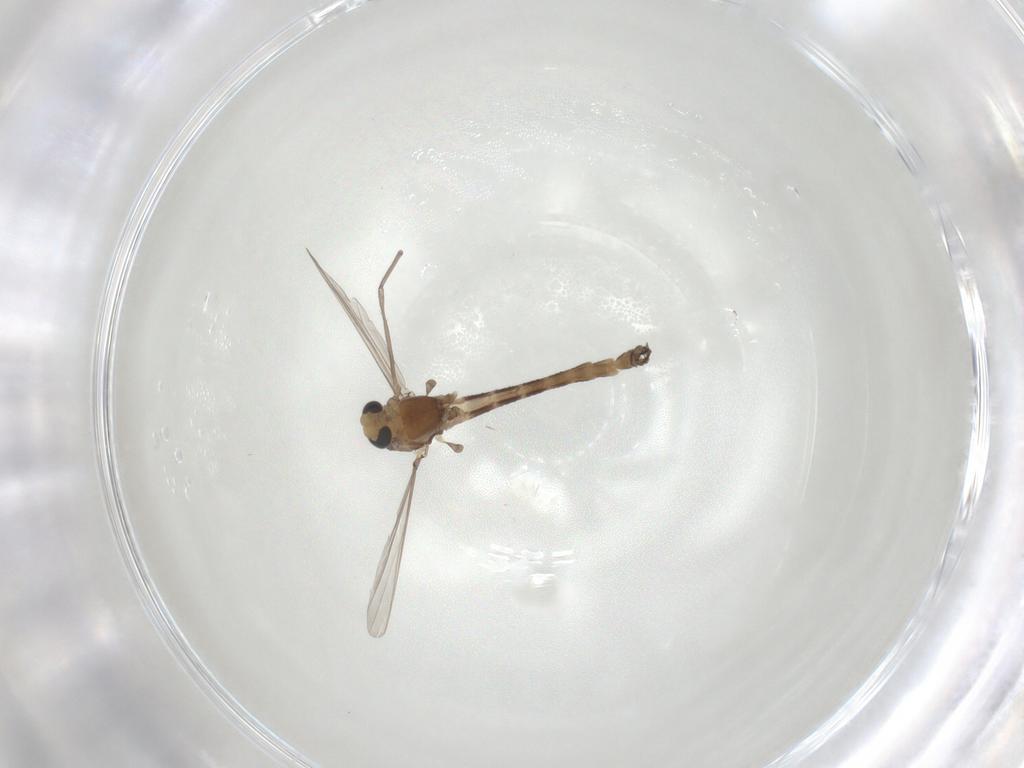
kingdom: Animalia
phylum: Arthropoda
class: Insecta
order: Diptera
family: Chironomidae
